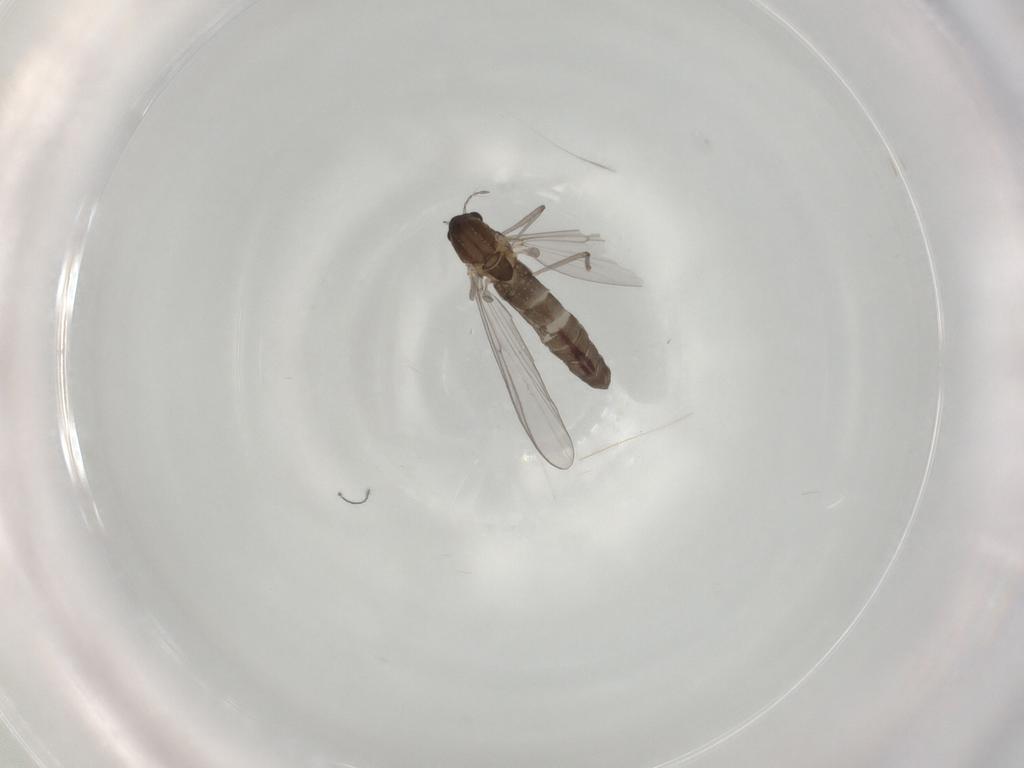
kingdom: Animalia
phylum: Arthropoda
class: Insecta
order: Diptera
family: Chironomidae
